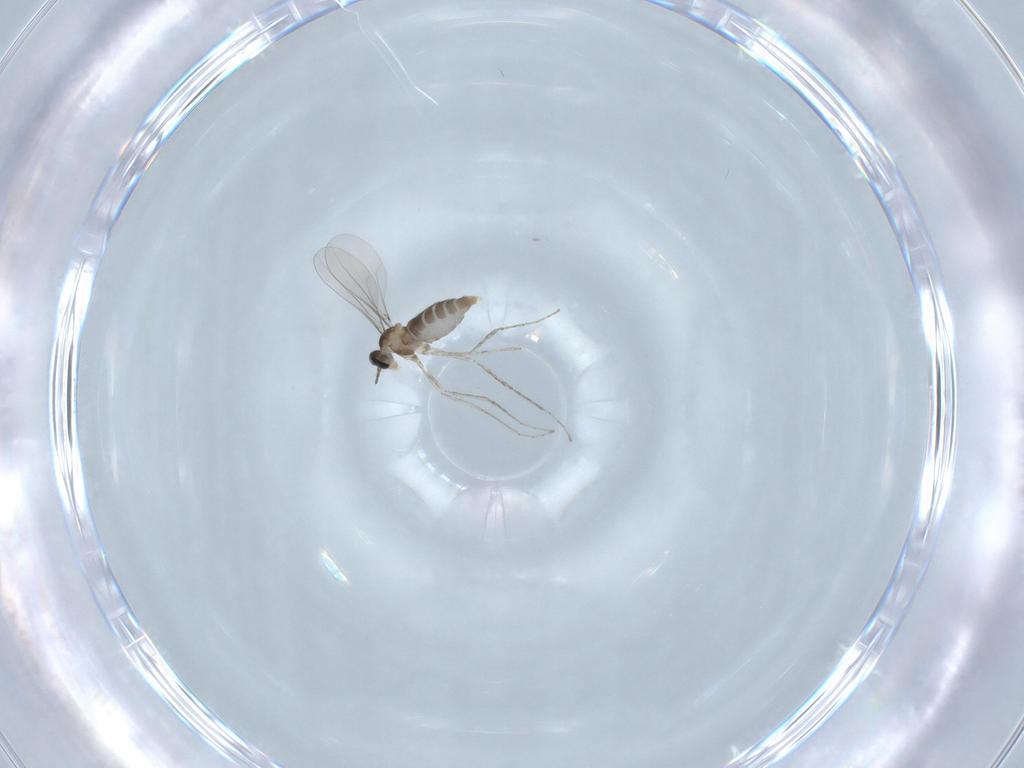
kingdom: Animalia
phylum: Arthropoda
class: Insecta
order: Diptera
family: Cecidomyiidae
